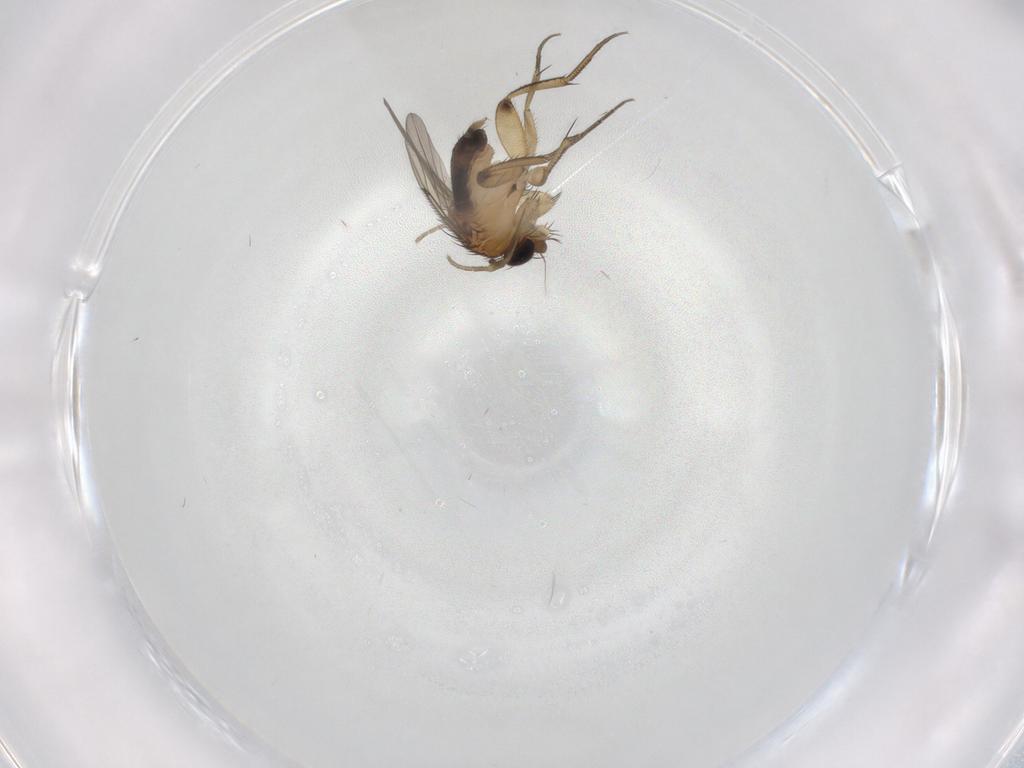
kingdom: Animalia
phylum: Arthropoda
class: Insecta
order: Diptera
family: Phoridae
